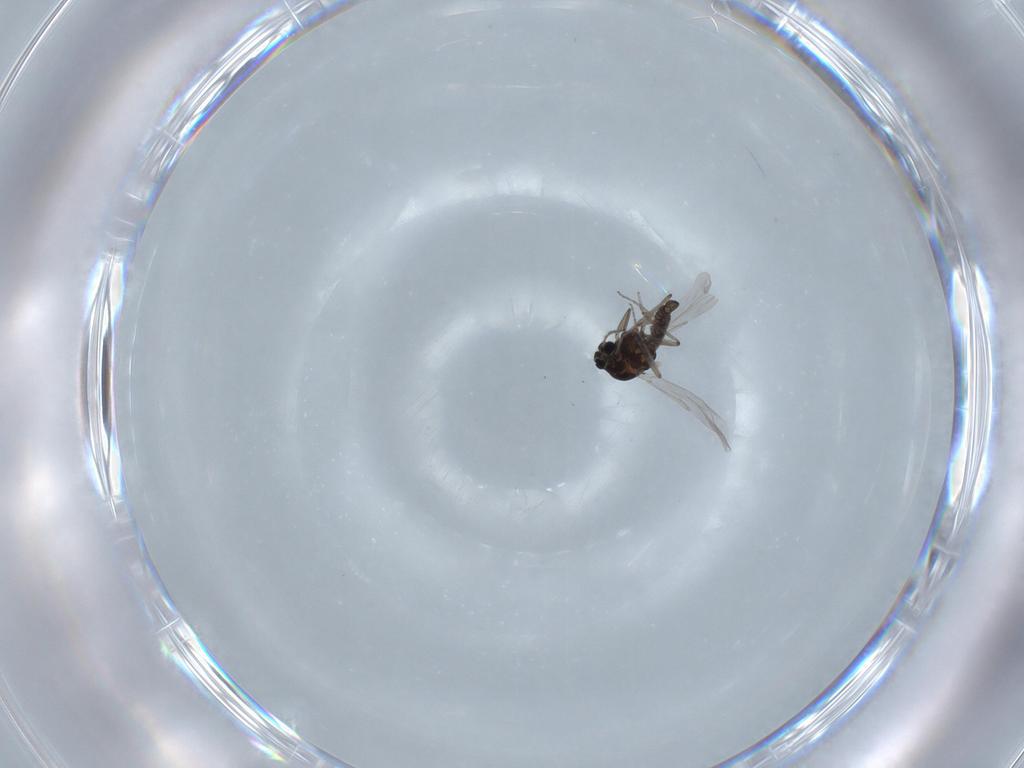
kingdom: Animalia
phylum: Arthropoda
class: Insecta
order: Diptera
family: Ceratopogonidae
